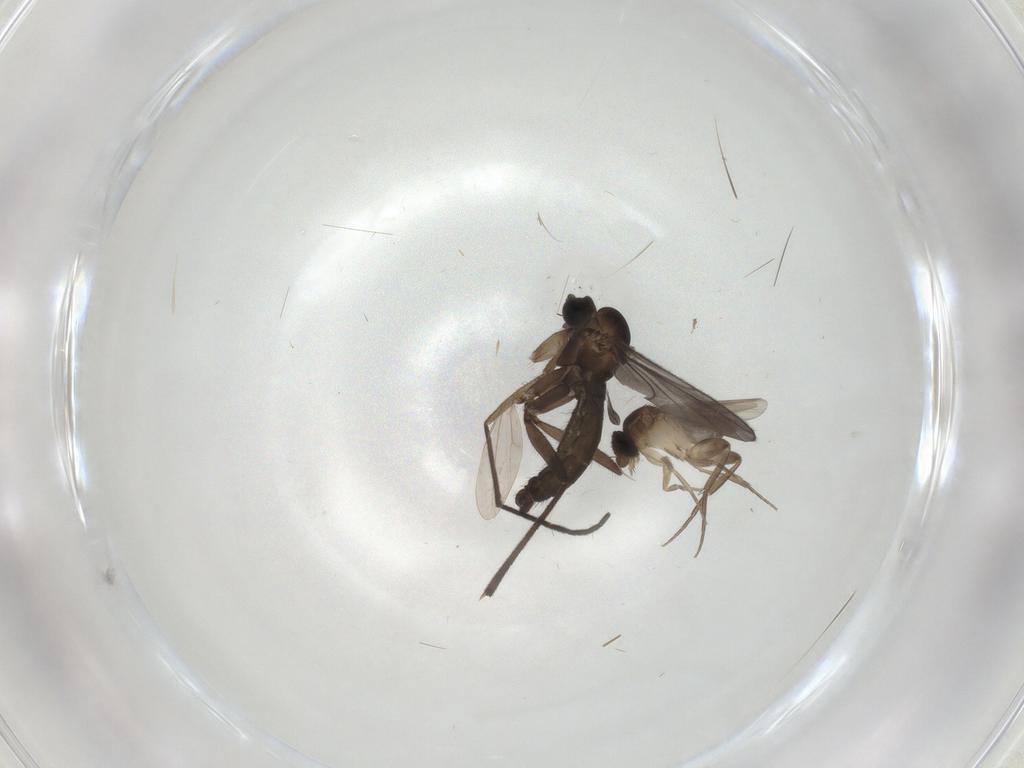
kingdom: Animalia
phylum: Arthropoda
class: Insecta
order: Diptera
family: Phoridae
